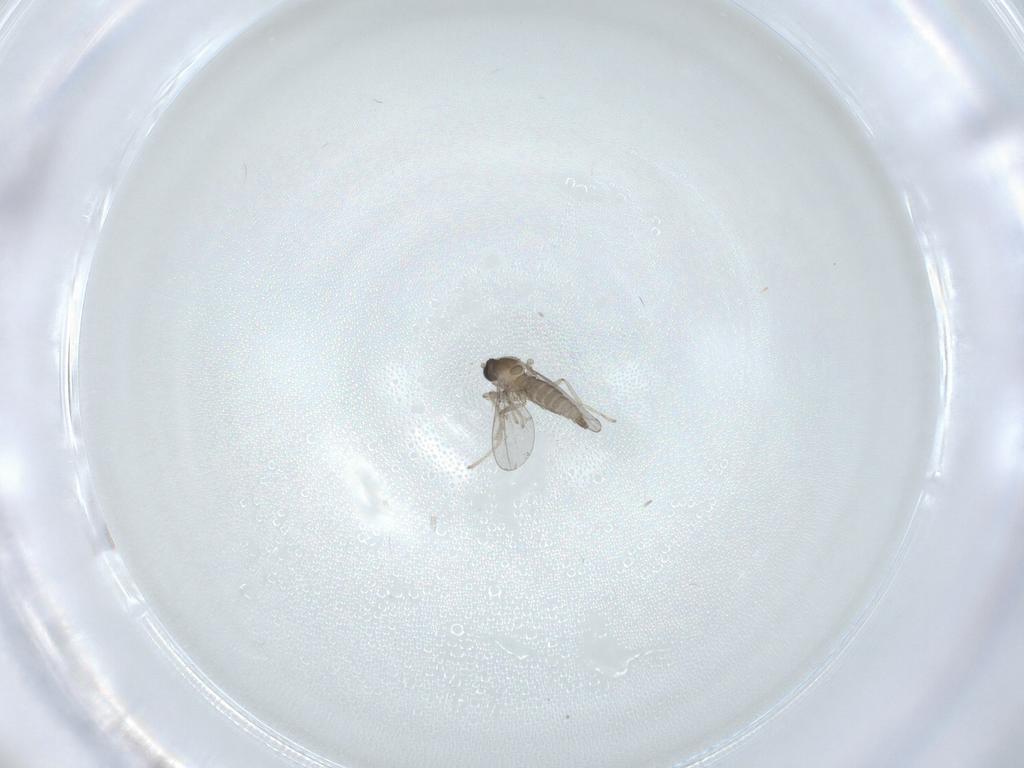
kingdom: Animalia
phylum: Arthropoda
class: Insecta
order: Diptera
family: Cecidomyiidae
